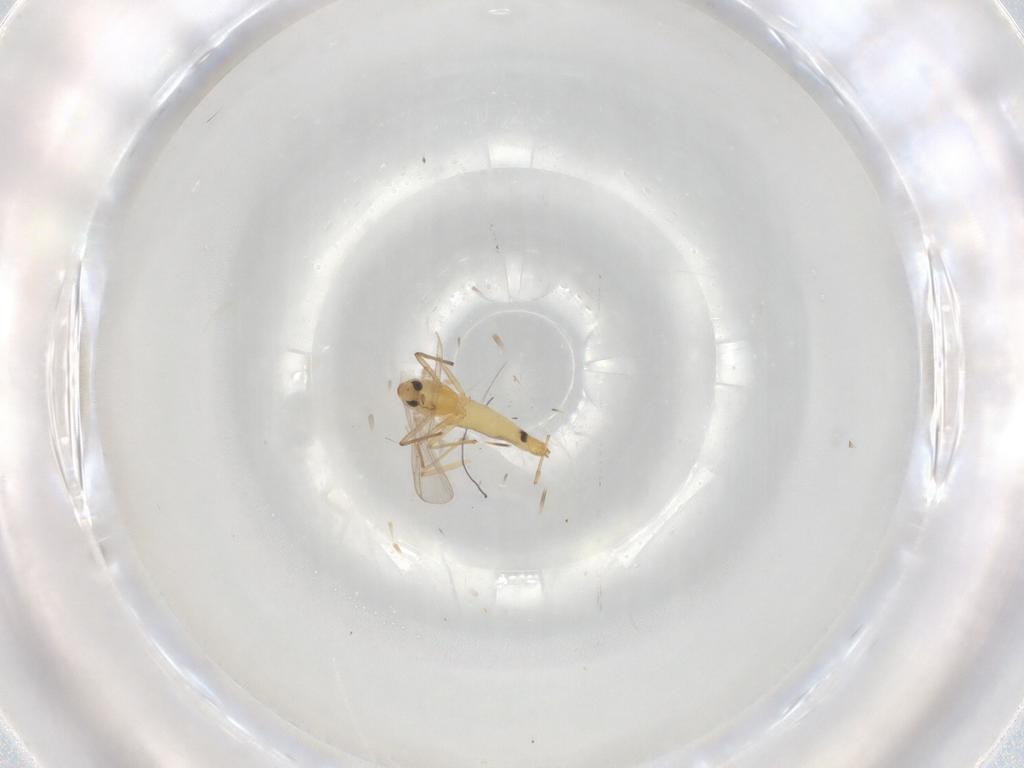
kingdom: Animalia
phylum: Arthropoda
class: Insecta
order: Diptera
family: Chironomidae
